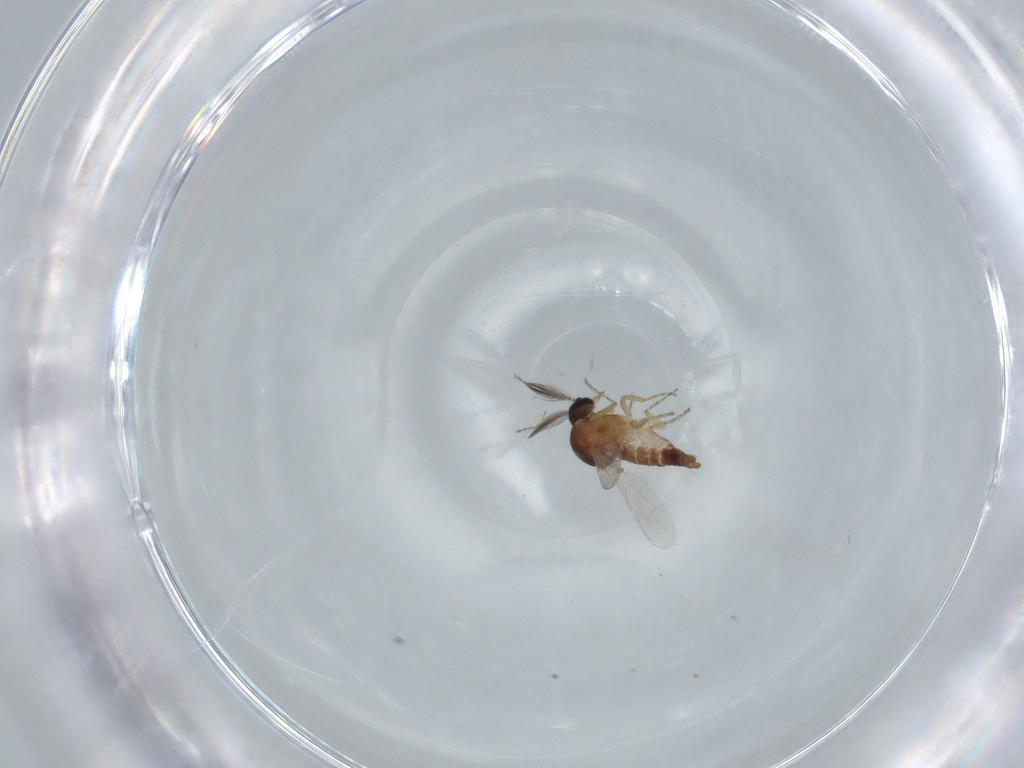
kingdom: Animalia
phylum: Arthropoda
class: Insecta
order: Diptera
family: Ceratopogonidae
